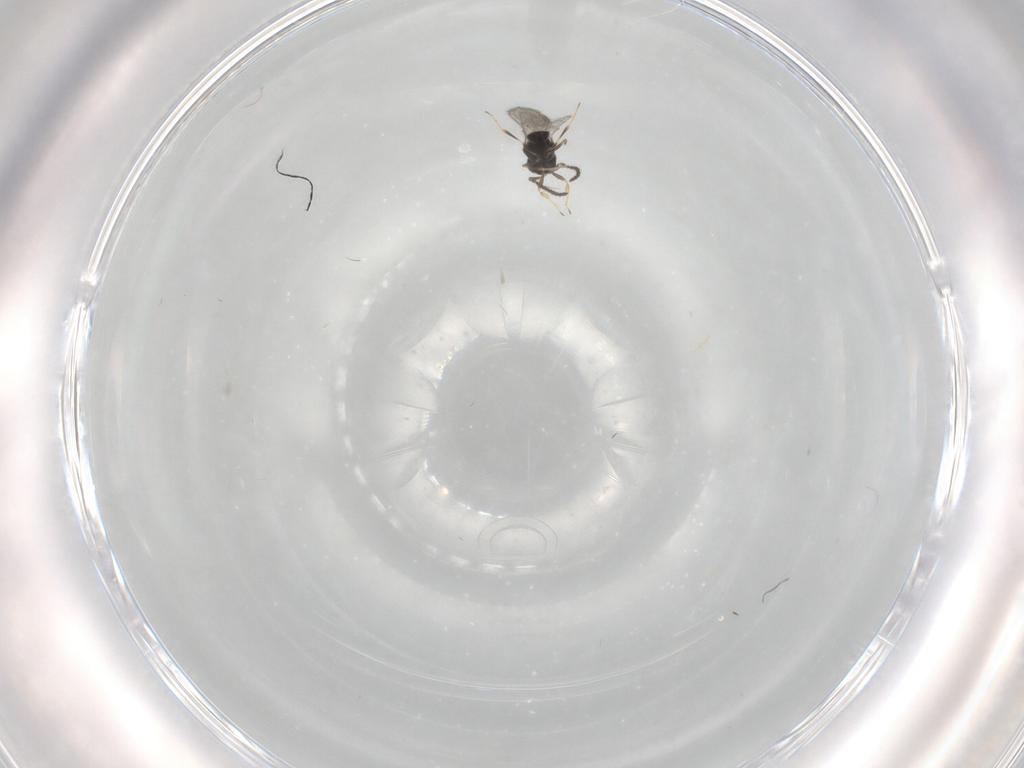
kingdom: Animalia
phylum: Arthropoda
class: Insecta
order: Hymenoptera
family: Scelionidae
